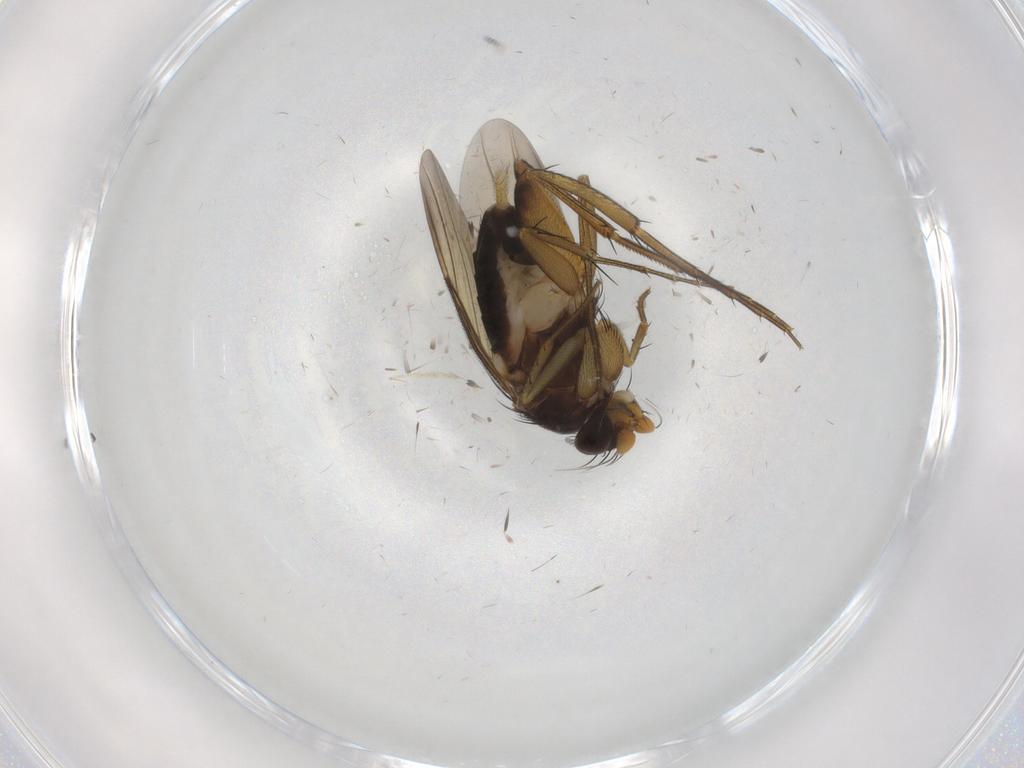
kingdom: Animalia
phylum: Arthropoda
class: Insecta
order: Diptera
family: Phoridae
